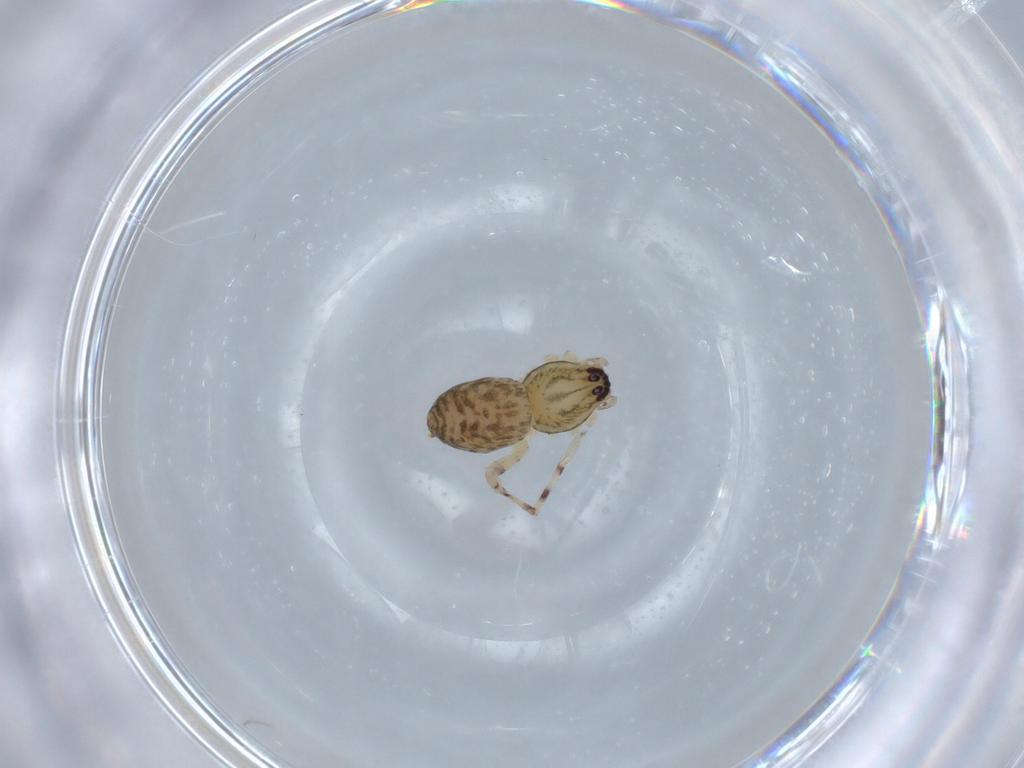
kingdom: Animalia
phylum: Arthropoda
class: Arachnida
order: Araneae
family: Anyphaenidae
